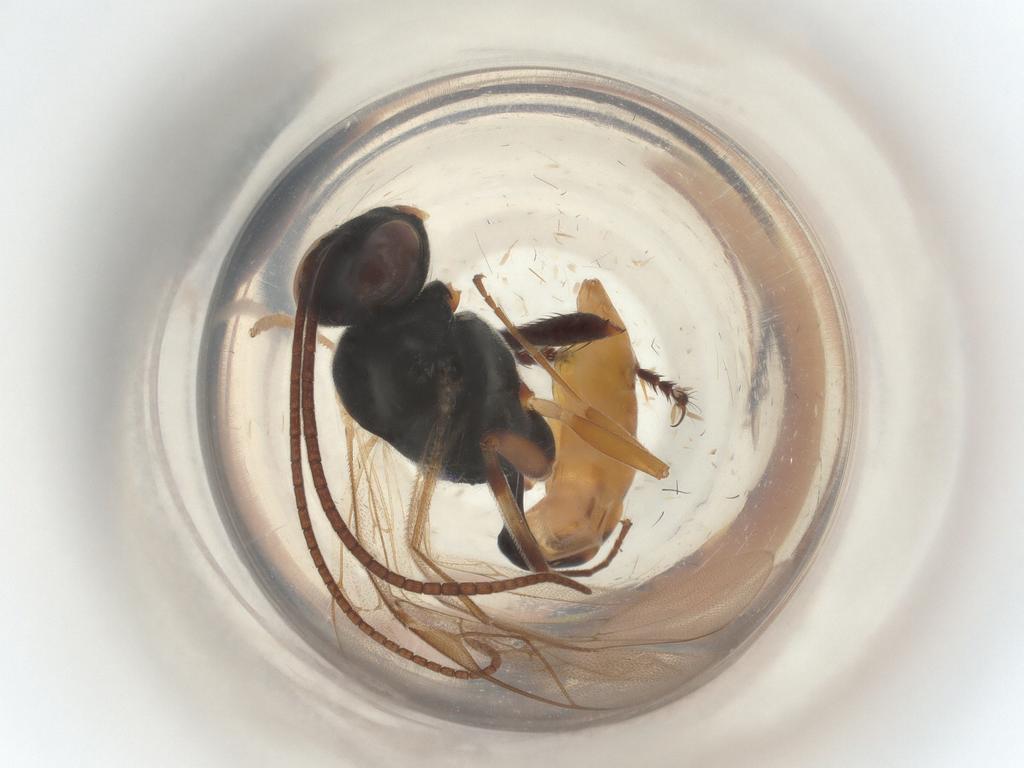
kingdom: Animalia
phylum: Arthropoda
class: Insecta
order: Hymenoptera
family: Ichneumonidae
